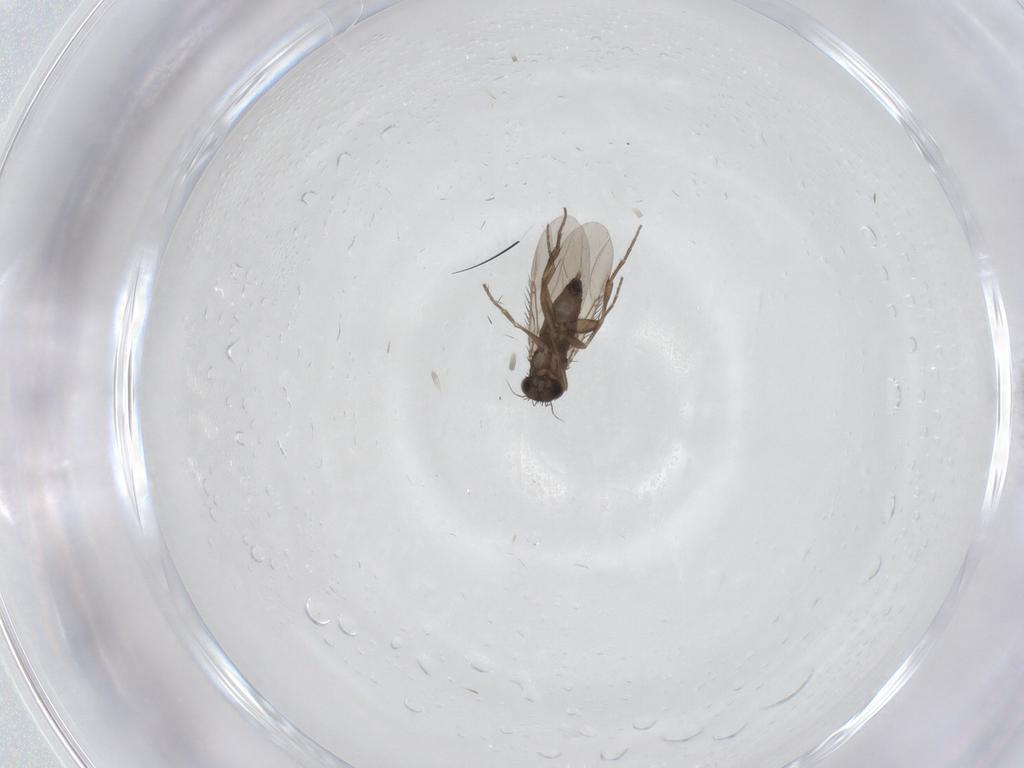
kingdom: Animalia
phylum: Arthropoda
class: Insecta
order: Diptera
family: Phoridae
